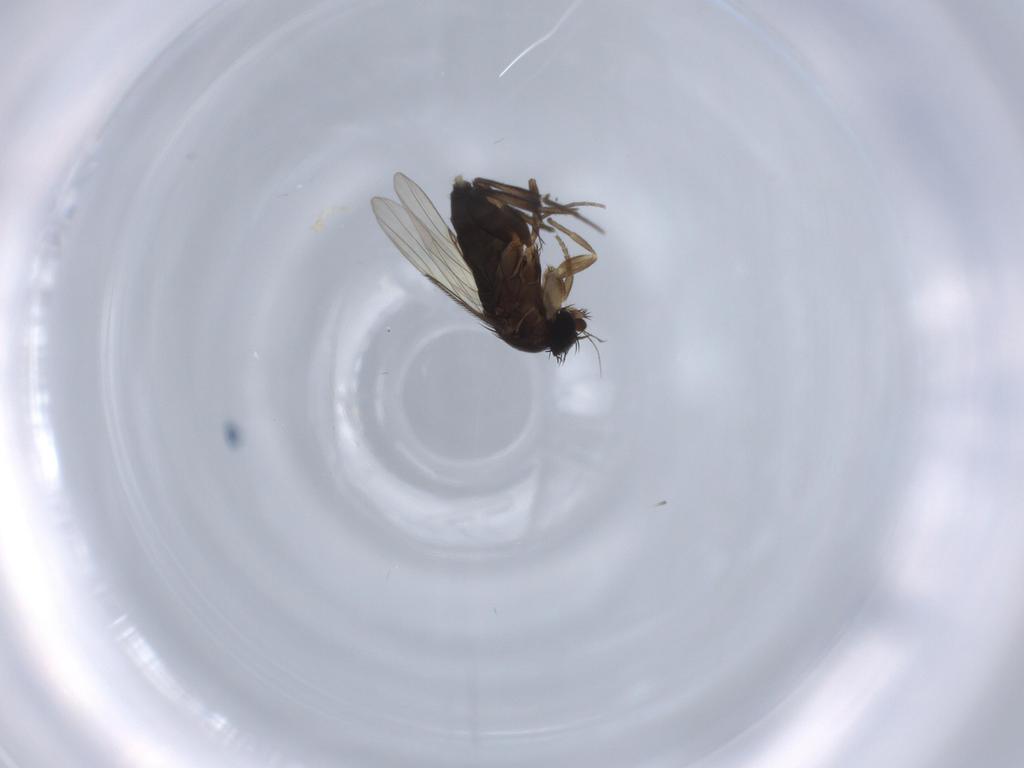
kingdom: Animalia
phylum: Arthropoda
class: Insecta
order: Diptera
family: Phoridae
